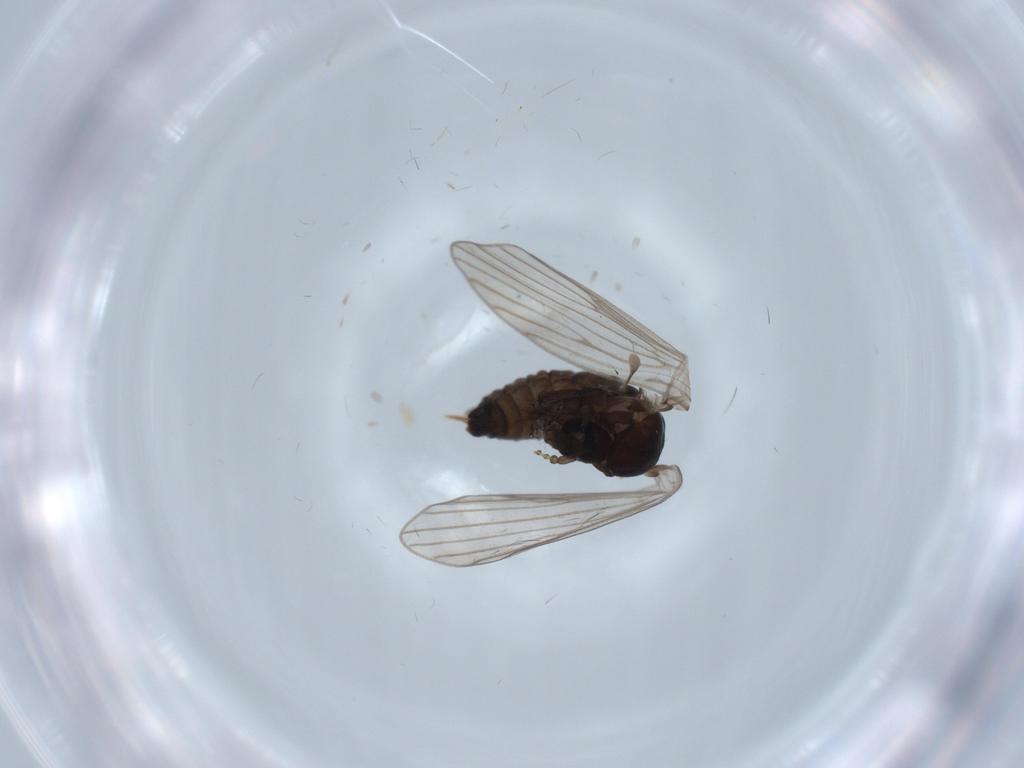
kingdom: Animalia
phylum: Arthropoda
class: Insecta
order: Diptera
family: Psychodidae
